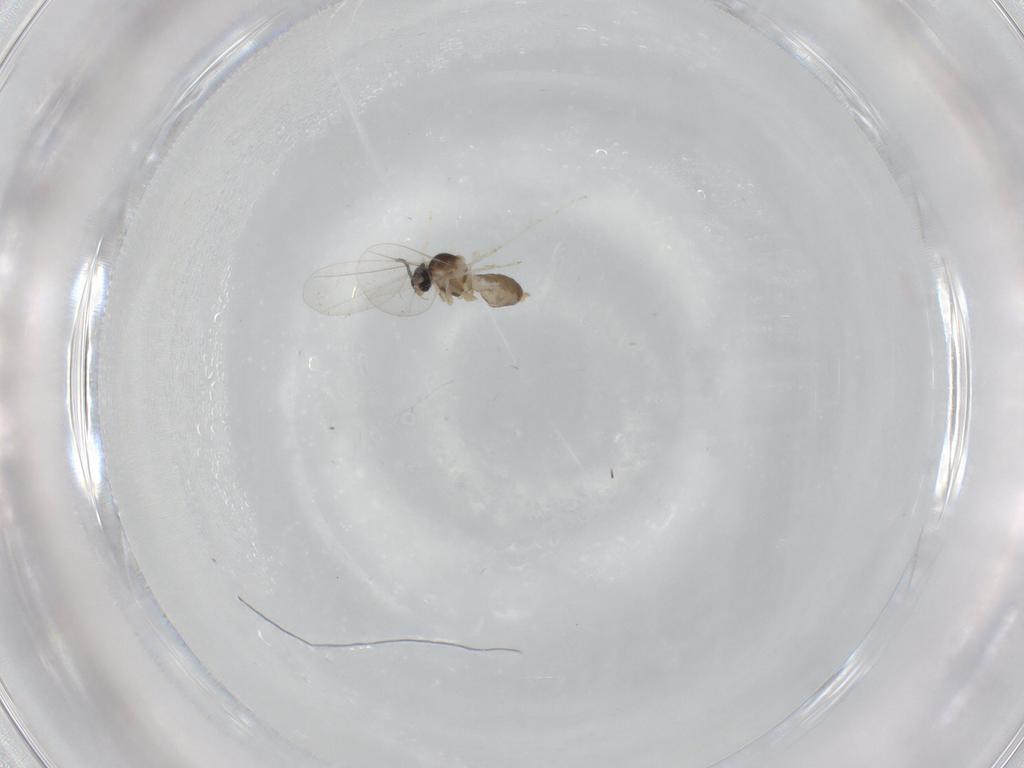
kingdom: Animalia
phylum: Arthropoda
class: Insecta
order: Diptera
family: Cecidomyiidae
